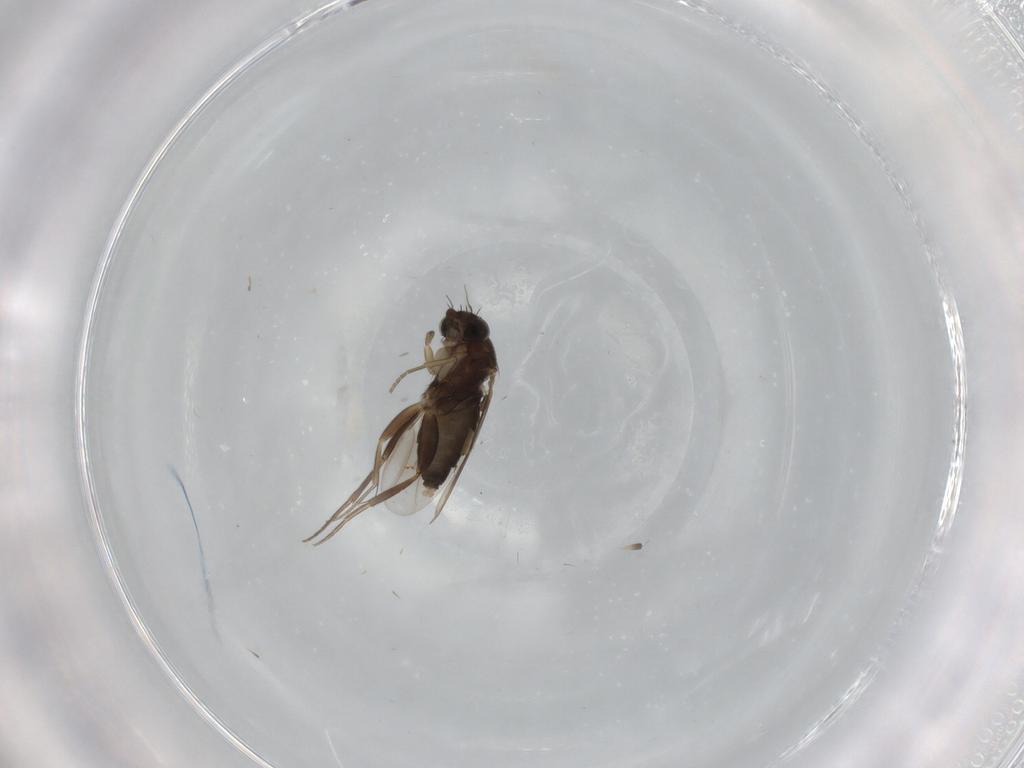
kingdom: Animalia
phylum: Arthropoda
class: Insecta
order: Diptera
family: Phoridae
